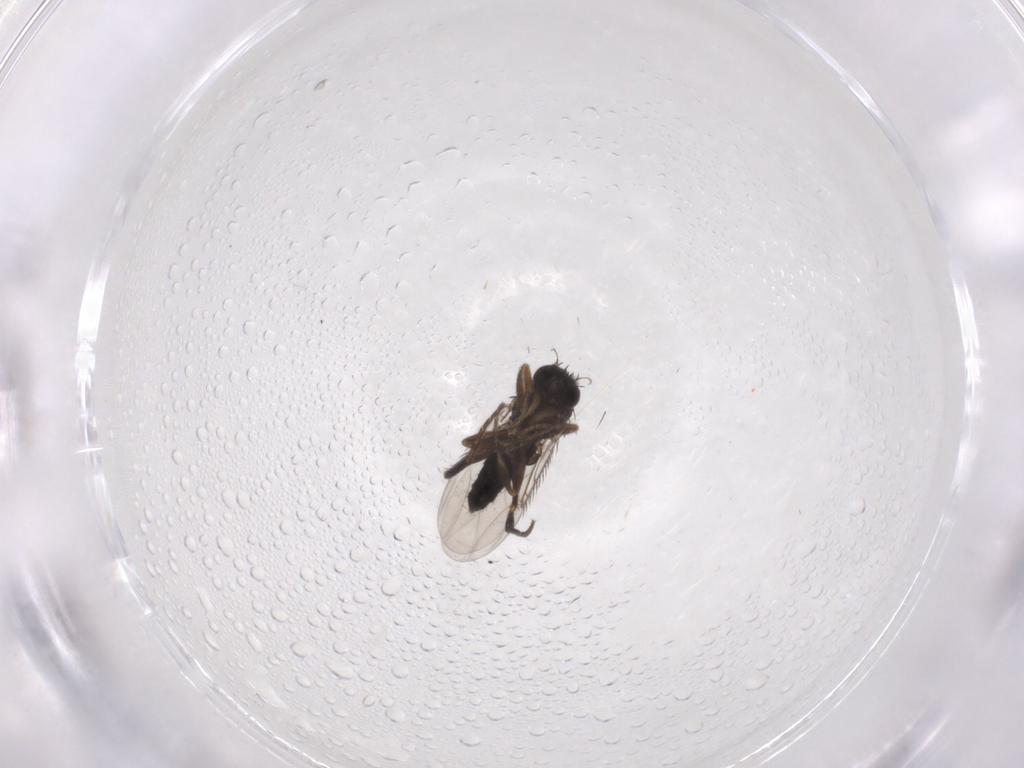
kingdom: Animalia
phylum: Arthropoda
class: Insecta
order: Diptera
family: Phoridae
